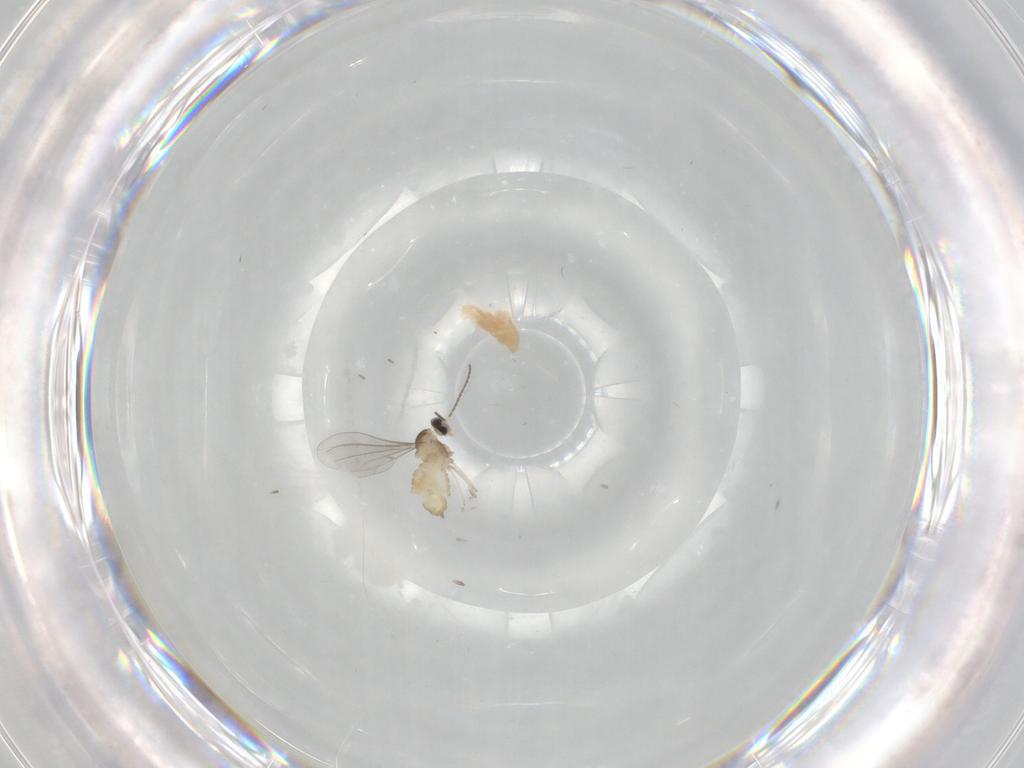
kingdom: Animalia
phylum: Arthropoda
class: Insecta
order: Diptera
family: Cecidomyiidae
